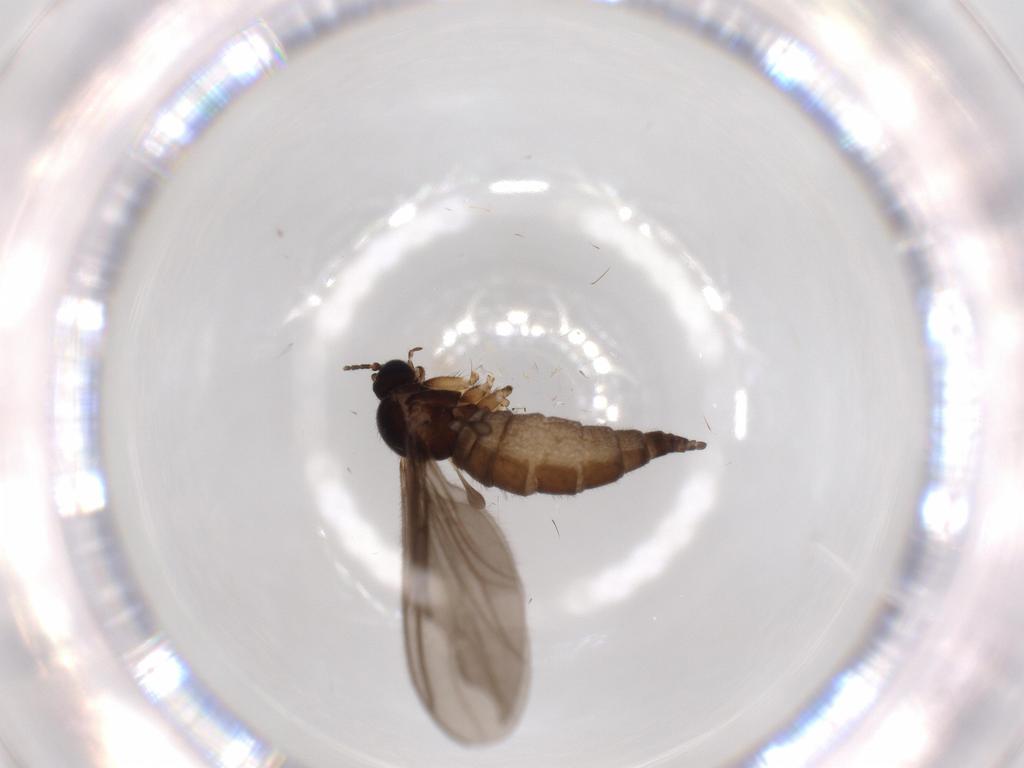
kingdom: Animalia
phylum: Arthropoda
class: Insecta
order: Diptera
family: Sciaridae
